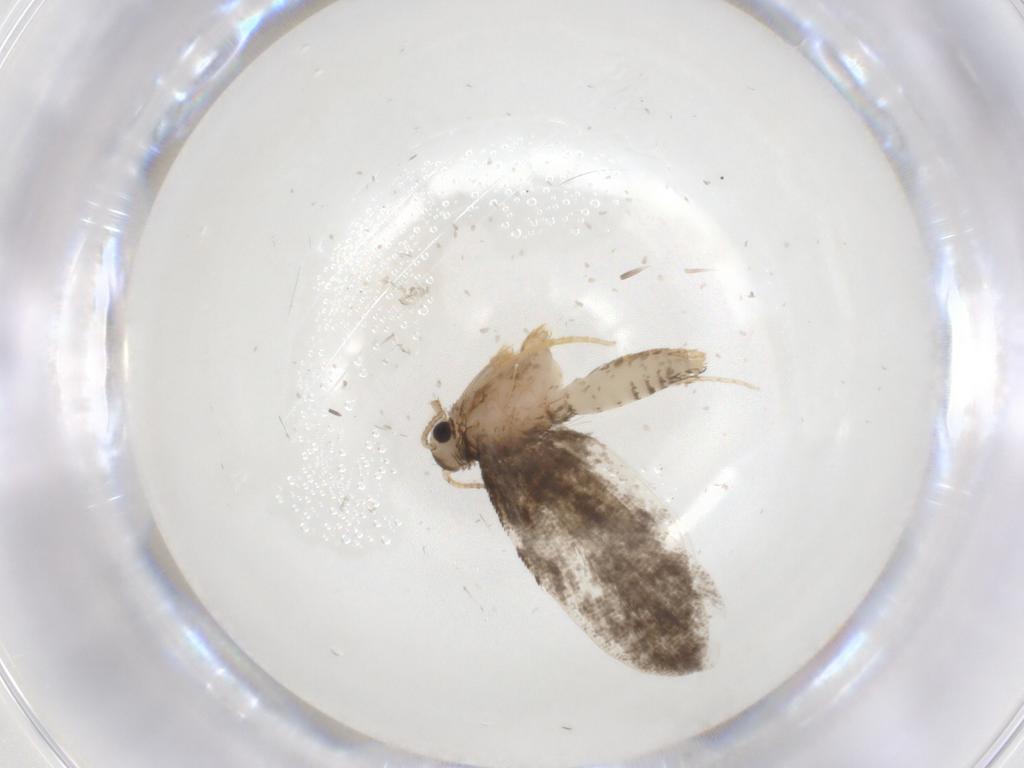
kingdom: Animalia
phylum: Arthropoda
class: Insecta
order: Lepidoptera
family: Psychidae
